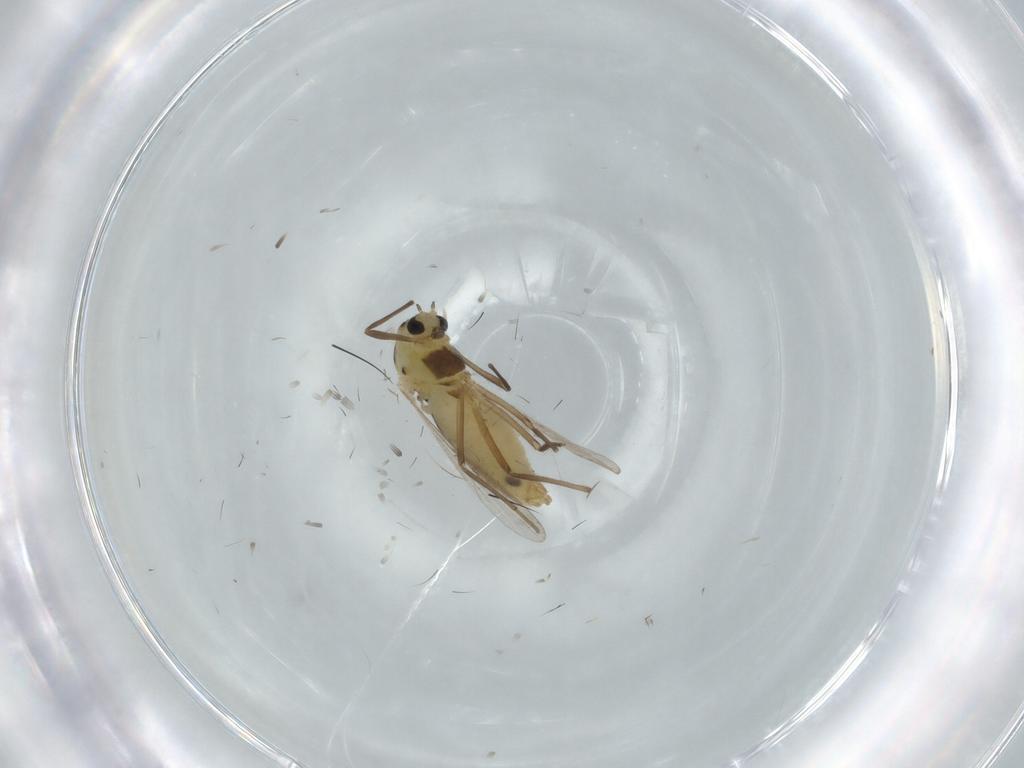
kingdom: Animalia
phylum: Arthropoda
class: Insecta
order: Diptera
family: Chironomidae
